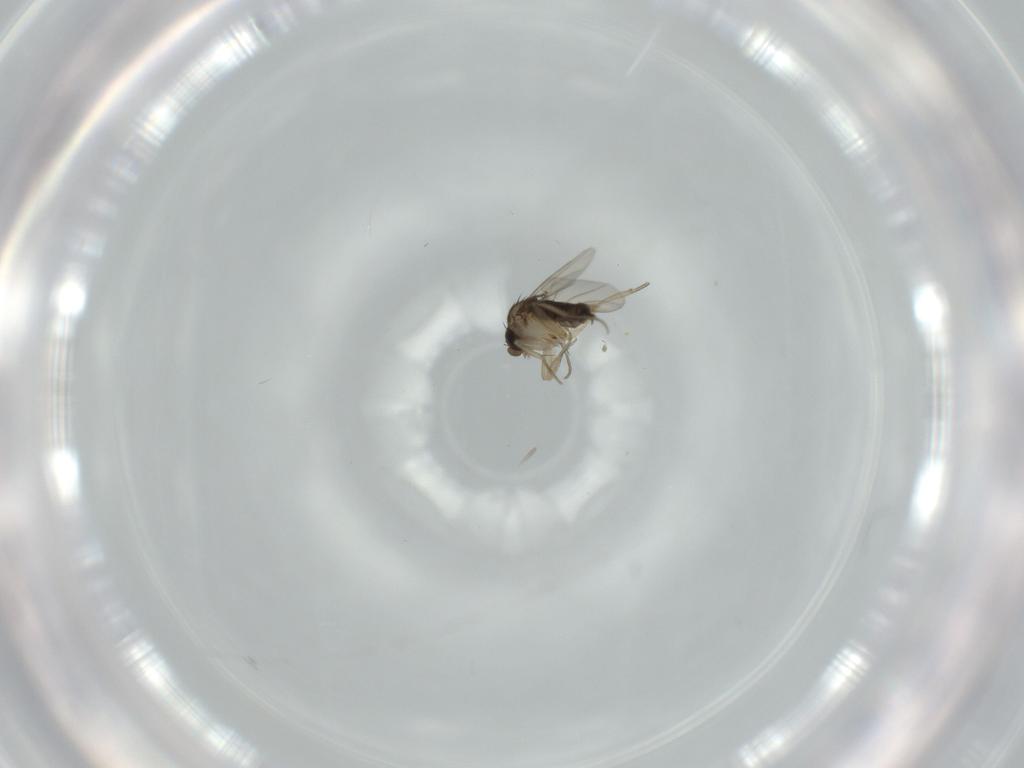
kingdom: Animalia
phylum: Arthropoda
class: Insecta
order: Diptera
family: Sciaridae
